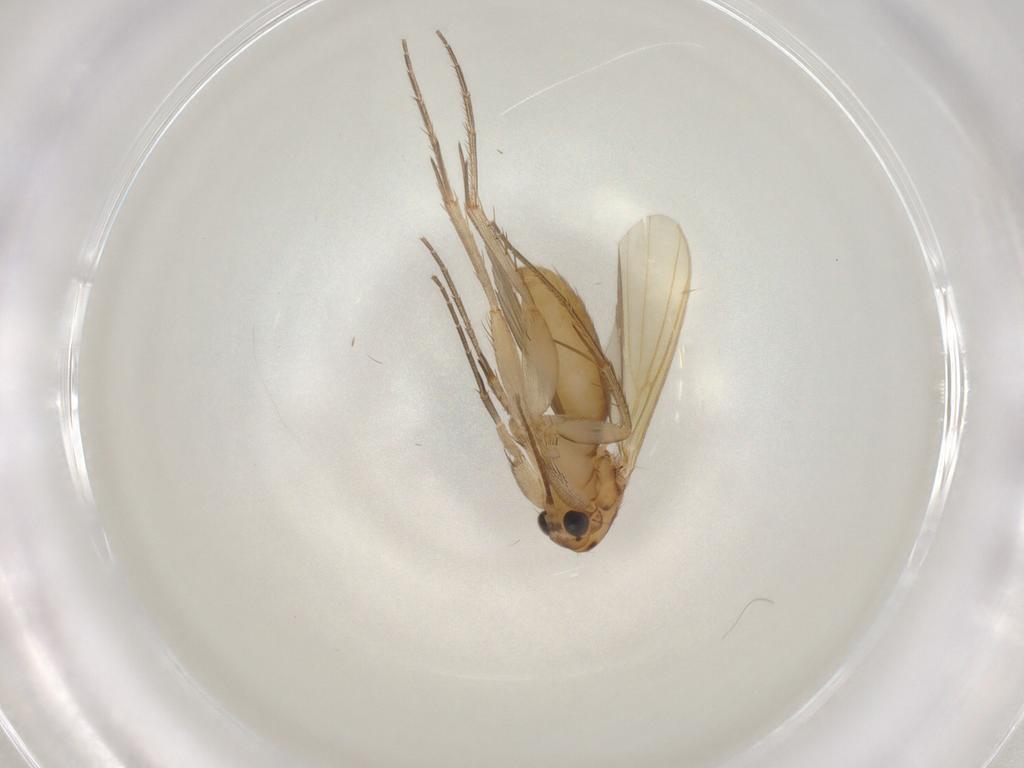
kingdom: Animalia
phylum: Arthropoda
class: Insecta
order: Diptera
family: Mycetophilidae
